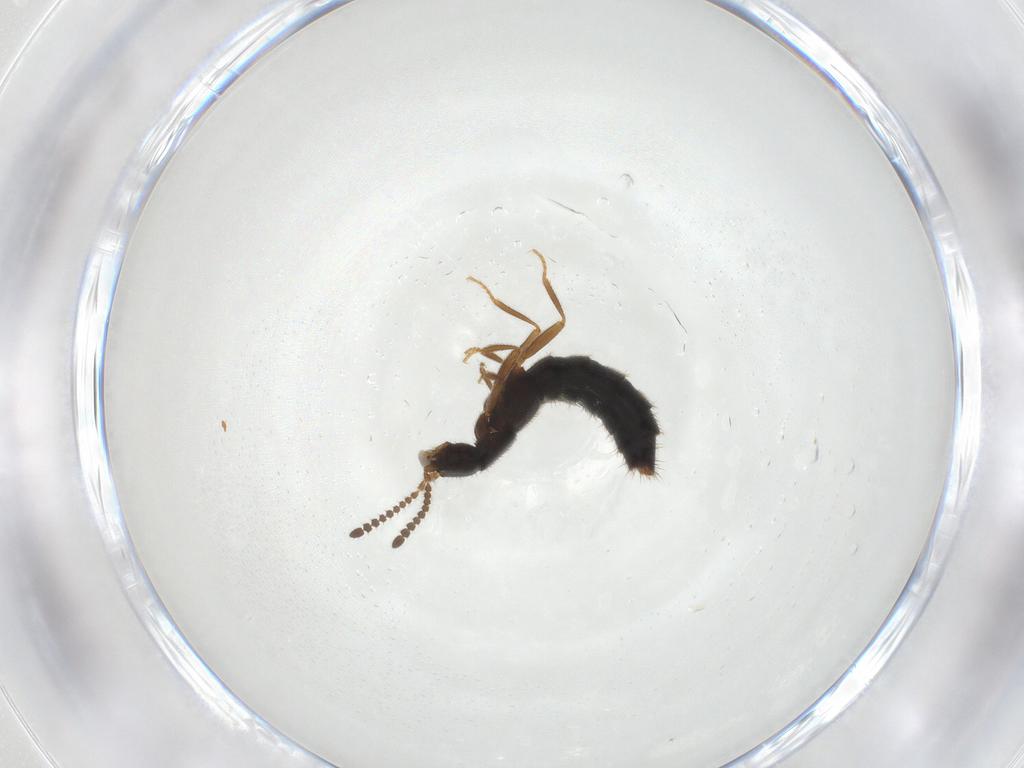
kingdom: Animalia
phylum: Arthropoda
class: Insecta
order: Coleoptera
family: Staphylinidae
